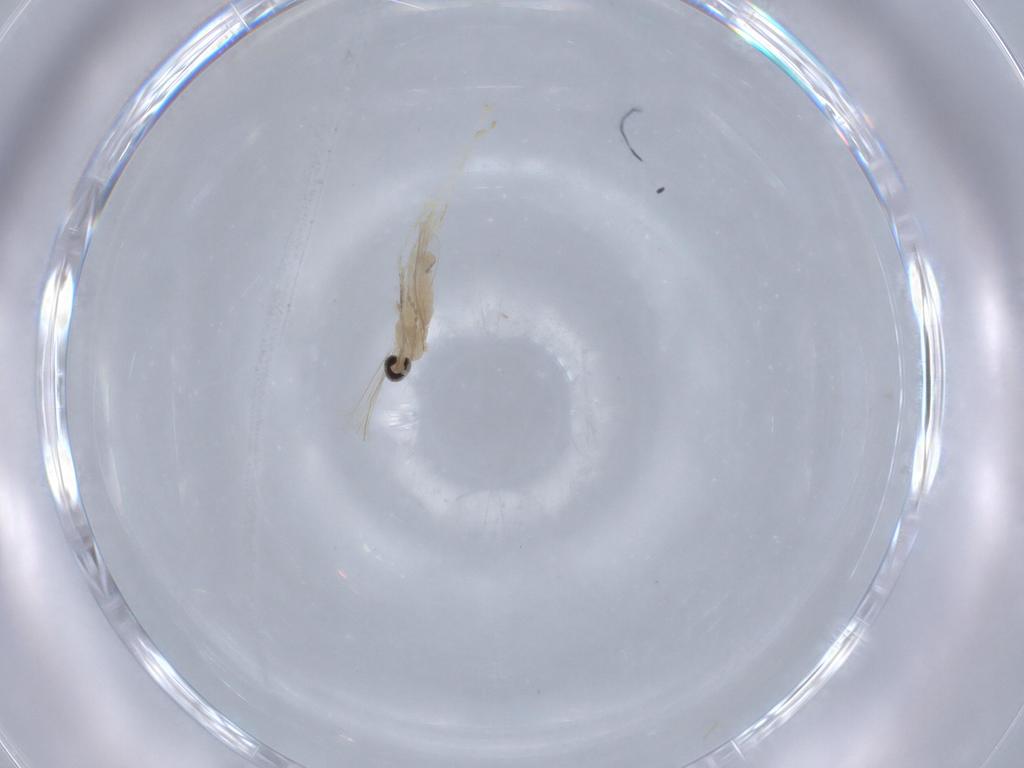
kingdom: Animalia
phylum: Arthropoda
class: Insecta
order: Diptera
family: Cecidomyiidae
